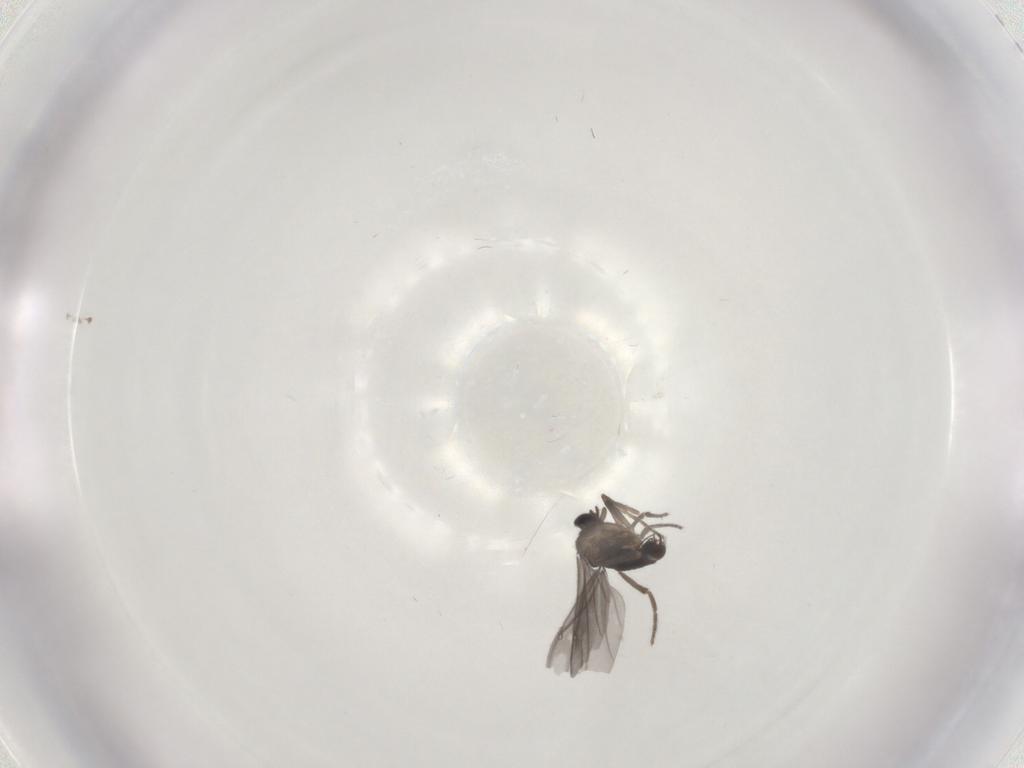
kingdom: Animalia
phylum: Arthropoda
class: Insecta
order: Diptera
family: Phoridae
